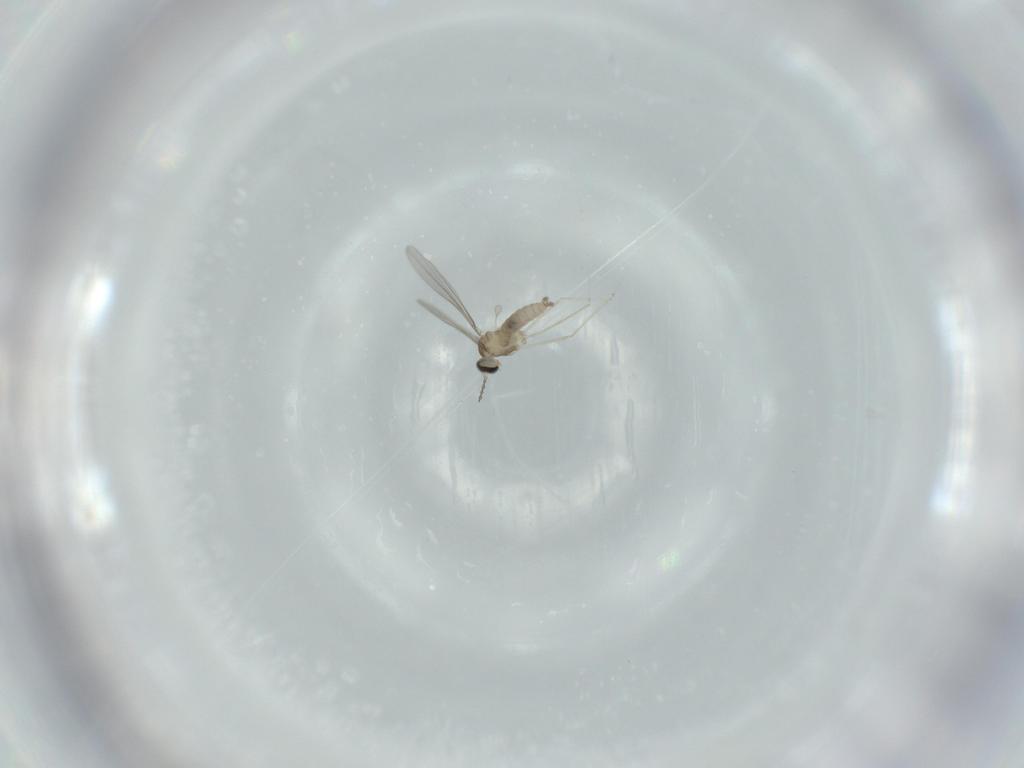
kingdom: Animalia
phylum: Arthropoda
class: Insecta
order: Diptera
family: Cecidomyiidae
